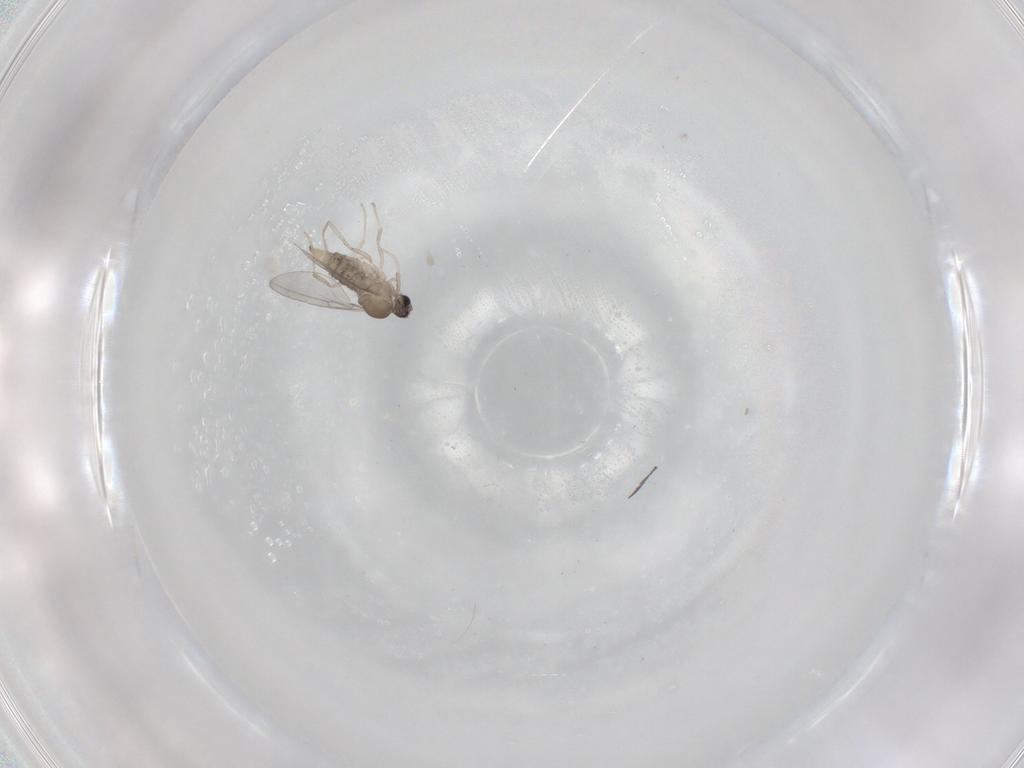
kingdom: Animalia
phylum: Arthropoda
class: Insecta
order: Diptera
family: Cecidomyiidae
